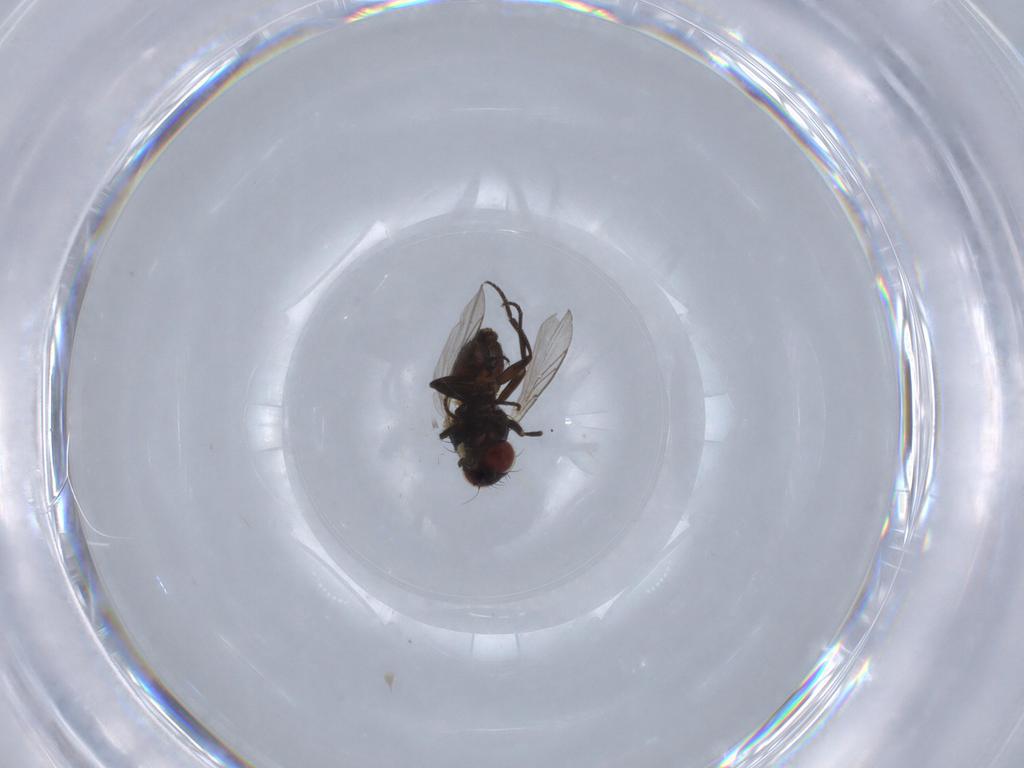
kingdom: Animalia
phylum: Arthropoda
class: Insecta
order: Diptera
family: Agromyzidae
